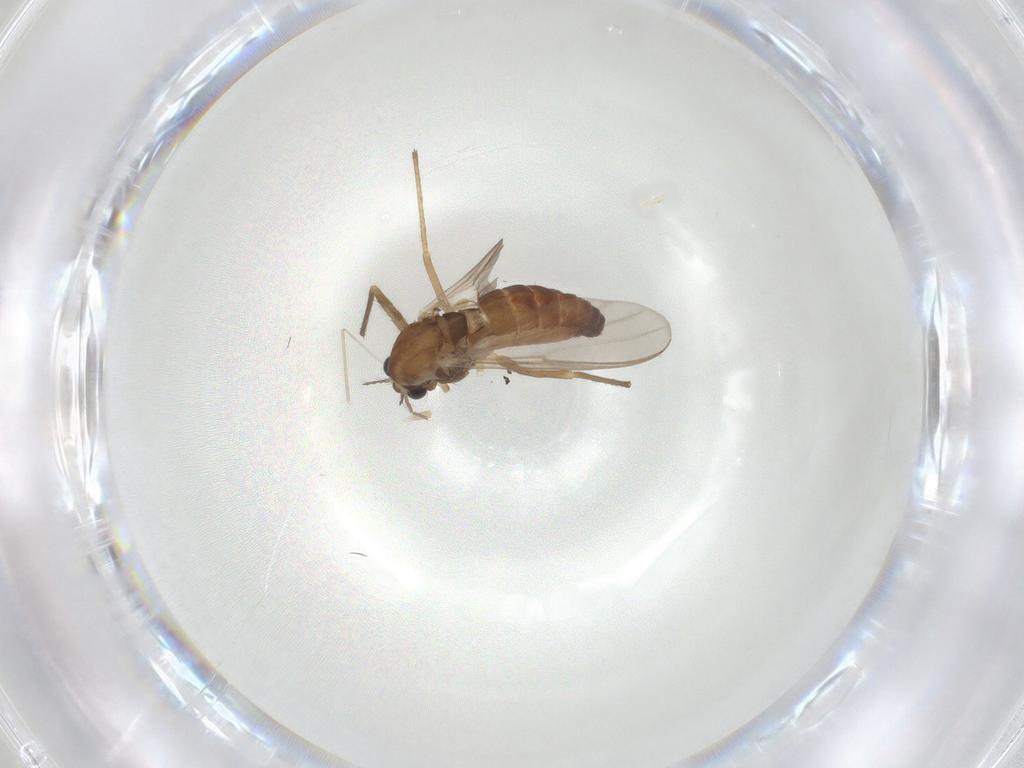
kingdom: Animalia
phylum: Arthropoda
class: Insecta
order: Diptera
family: Chironomidae
